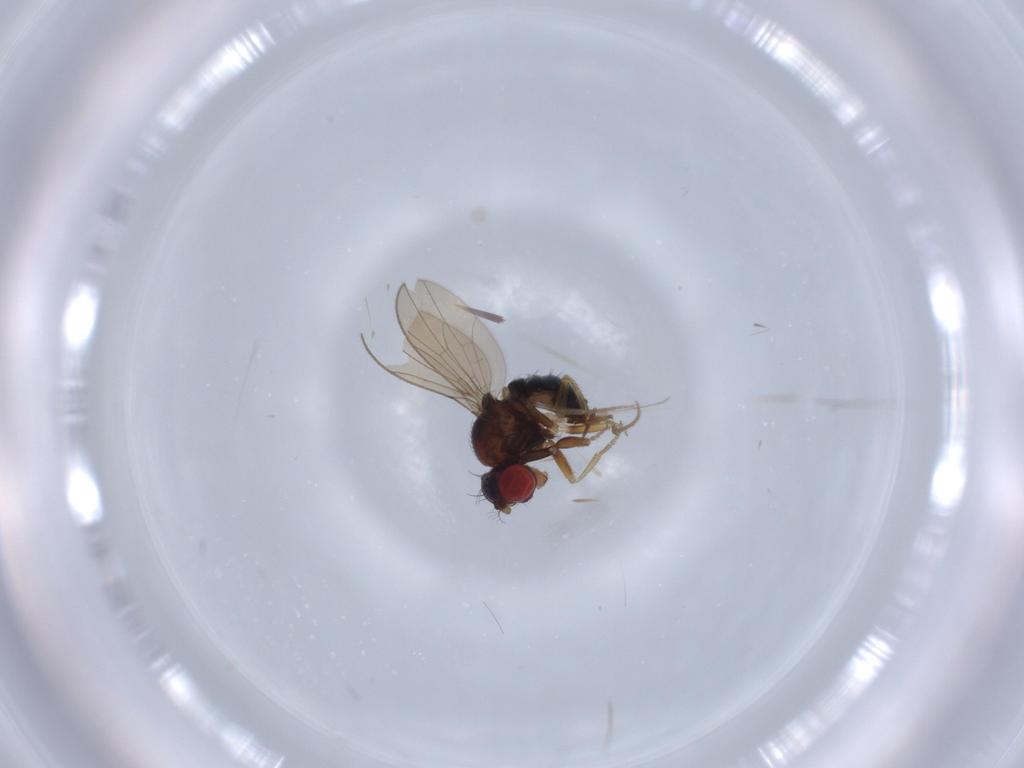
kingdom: Animalia
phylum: Arthropoda
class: Insecta
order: Diptera
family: Drosophilidae
